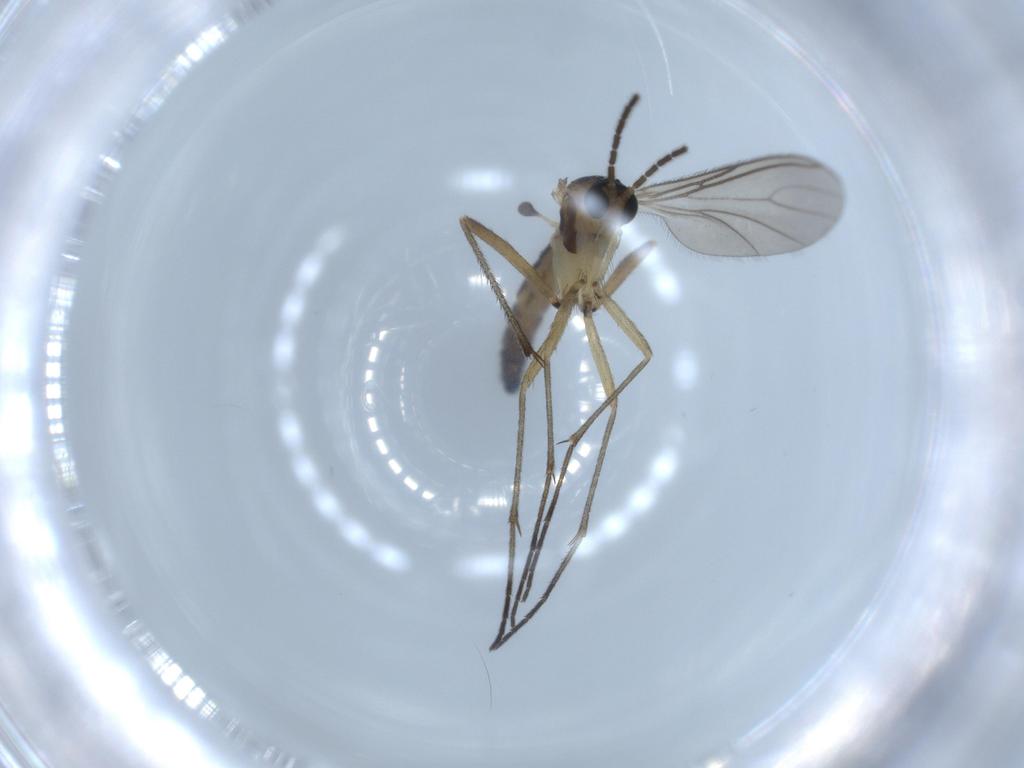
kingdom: Animalia
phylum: Arthropoda
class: Insecta
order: Diptera
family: Sciaridae
